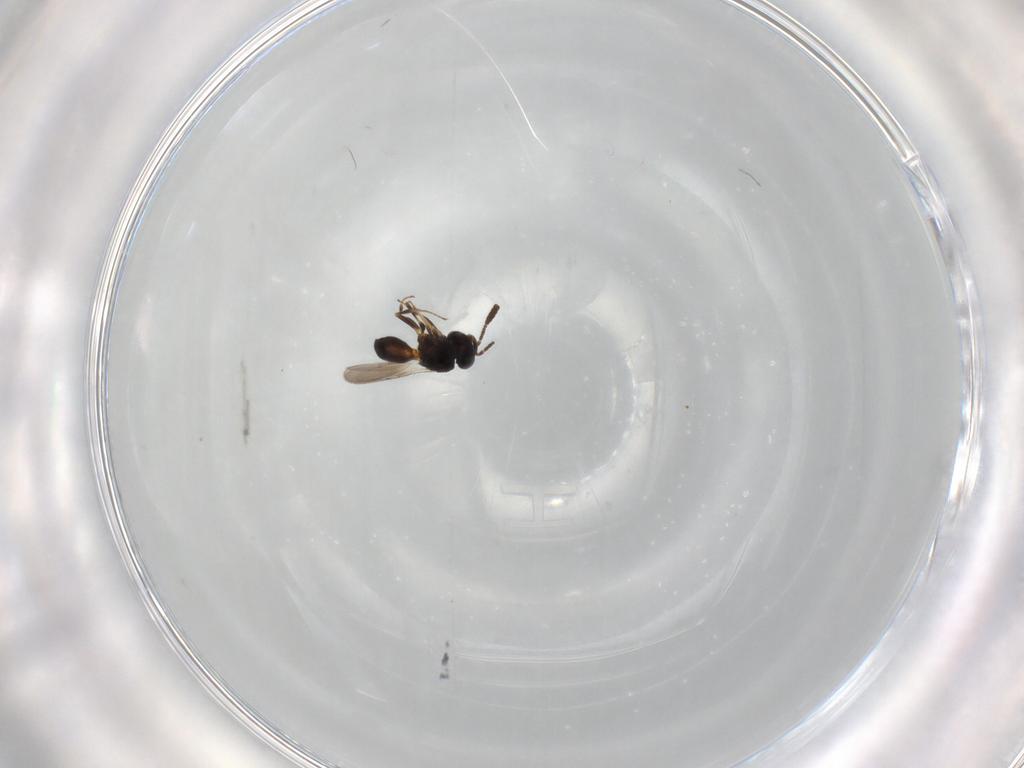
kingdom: Animalia
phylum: Arthropoda
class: Insecta
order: Hymenoptera
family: Scelionidae
